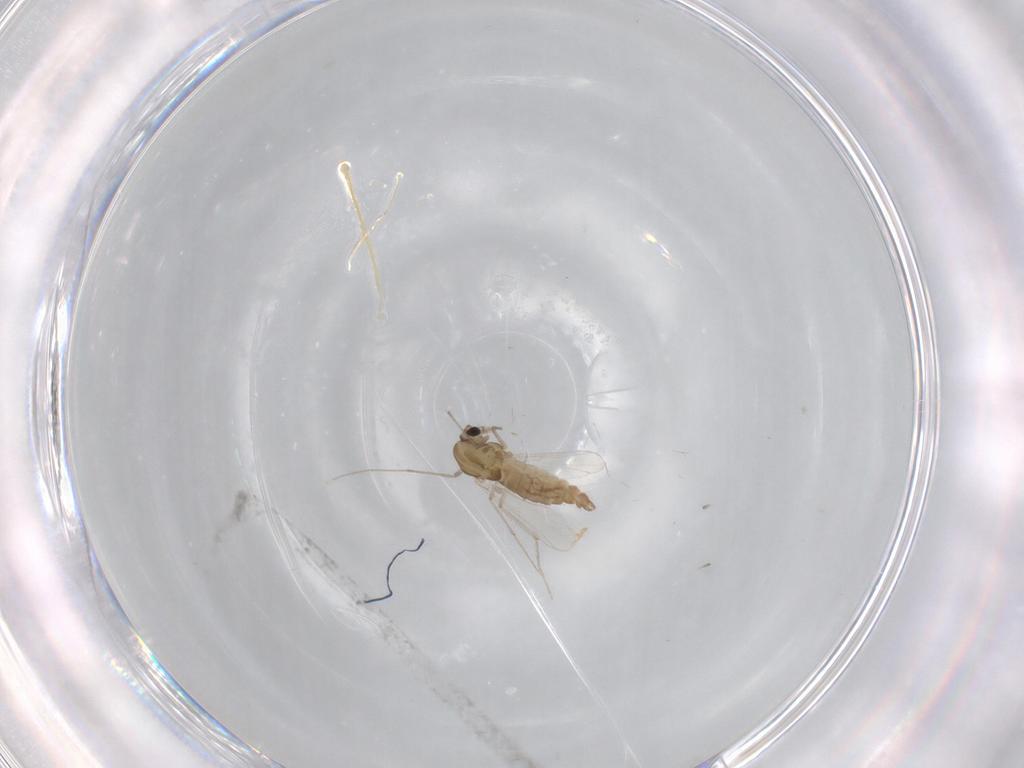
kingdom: Animalia
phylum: Arthropoda
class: Insecta
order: Diptera
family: Chironomidae
